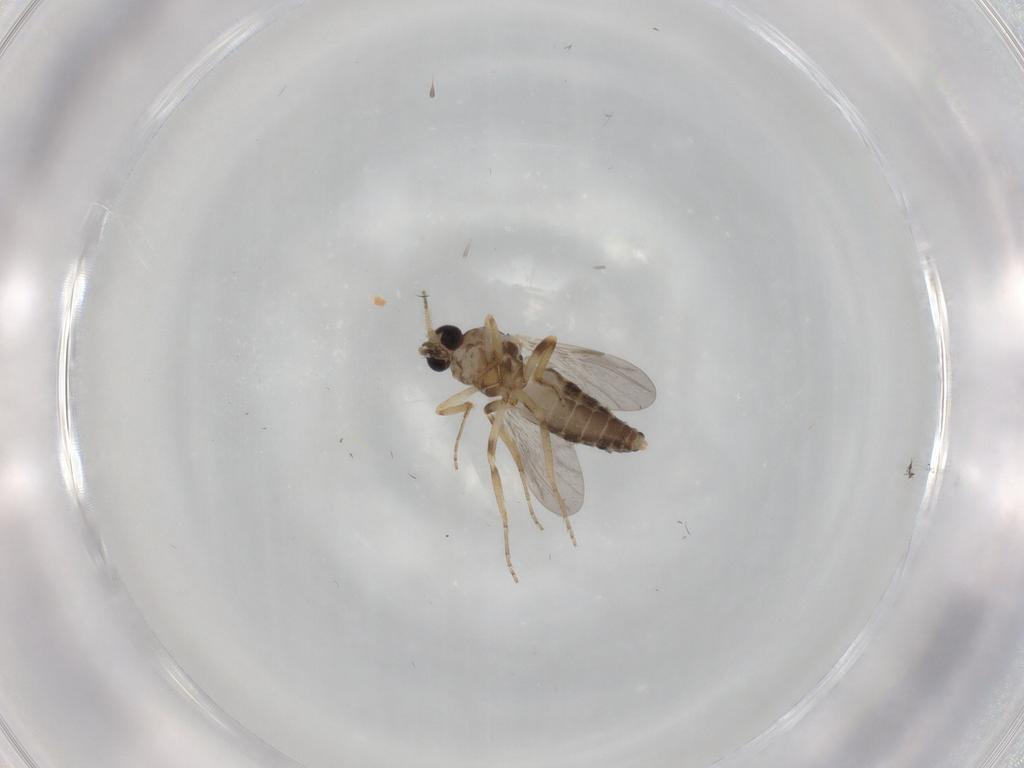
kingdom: Animalia
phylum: Arthropoda
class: Insecta
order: Diptera
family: Ceratopogonidae
